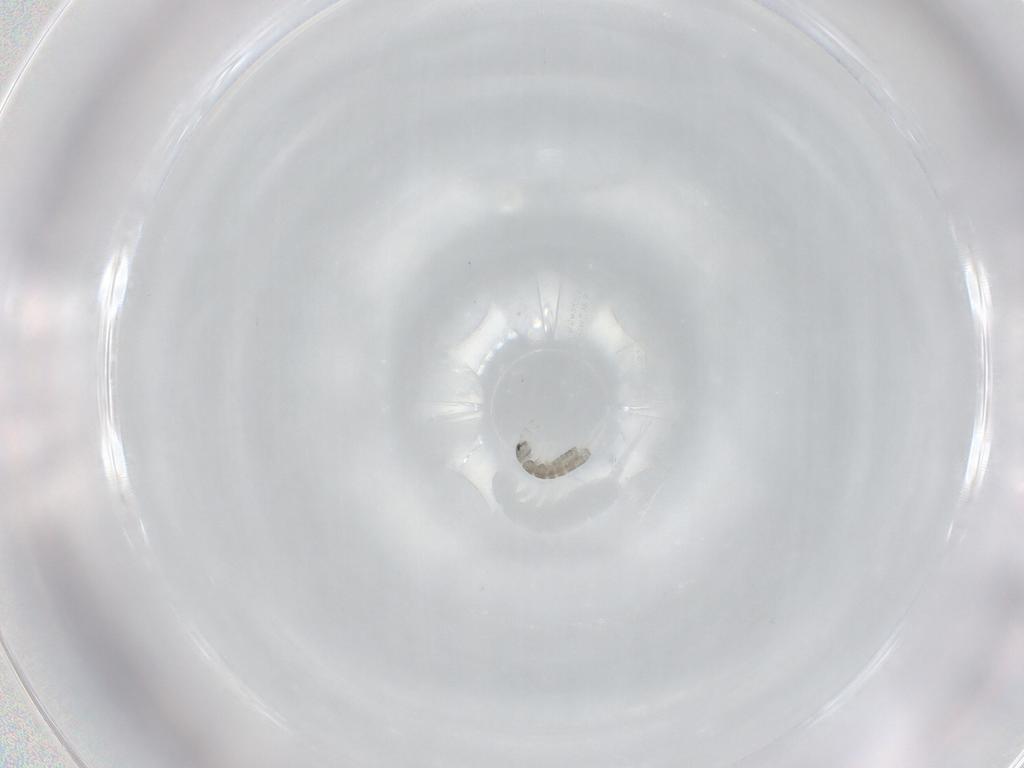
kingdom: Animalia
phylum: Arthropoda
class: Collembola
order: Entomobryomorpha
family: Isotomidae
